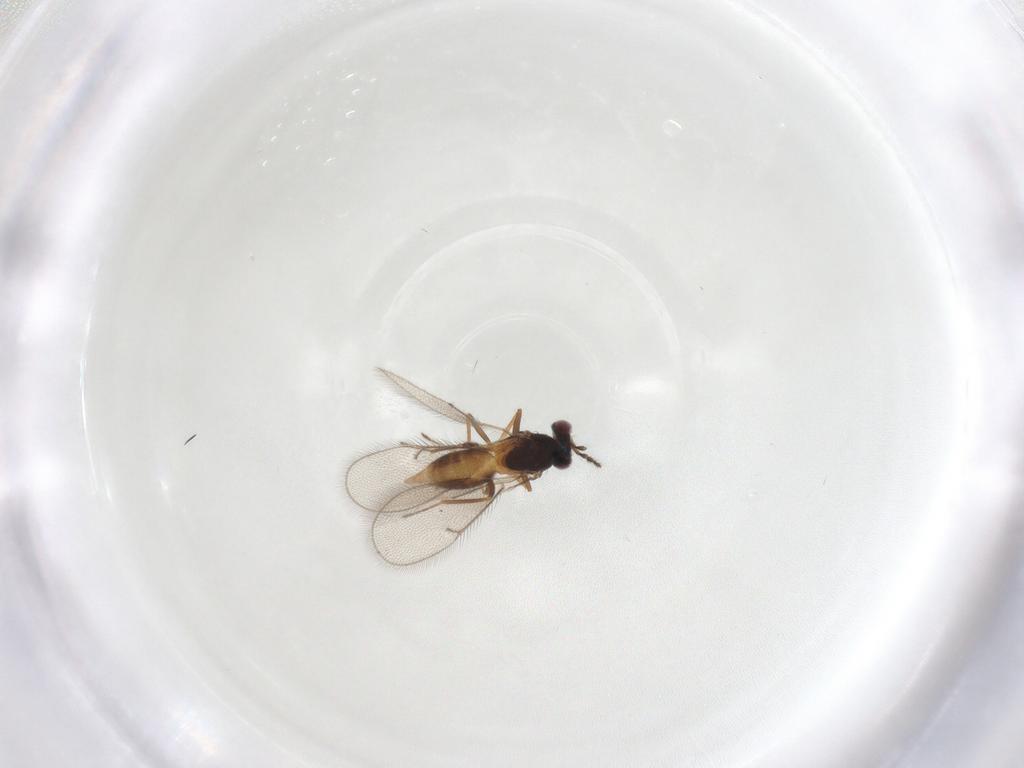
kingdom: Animalia
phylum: Arthropoda
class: Insecta
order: Hymenoptera
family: Eulophidae
